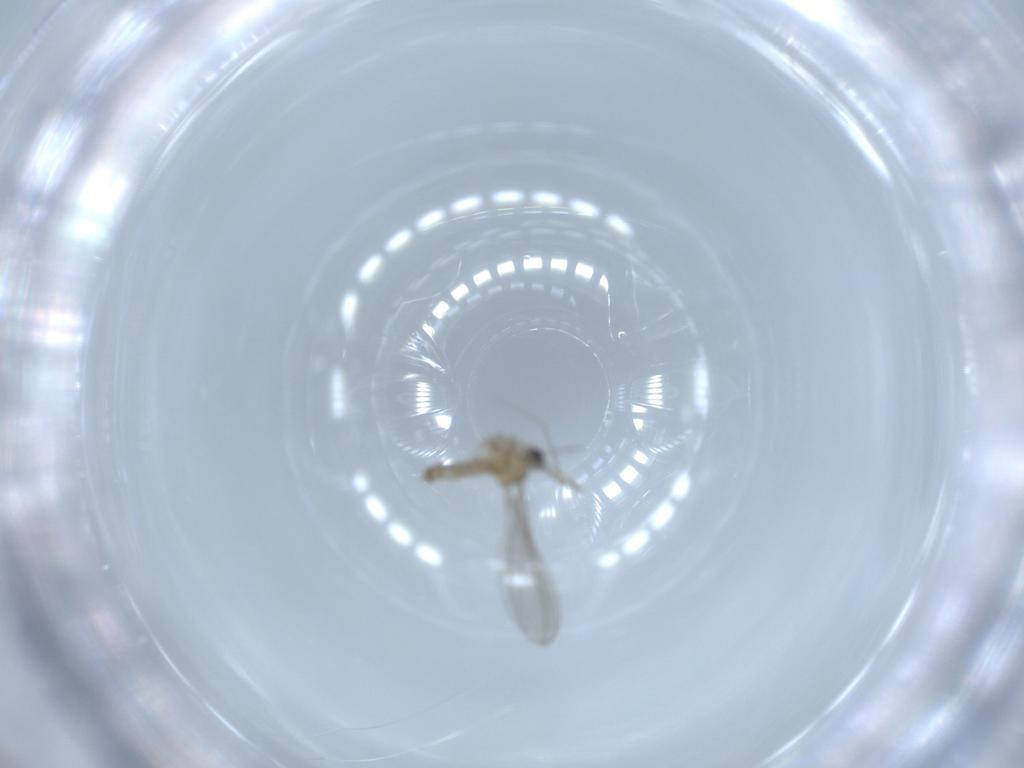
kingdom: Animalia
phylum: Arthropoda
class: Insecta
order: Diptera
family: Cecidomyiidae
